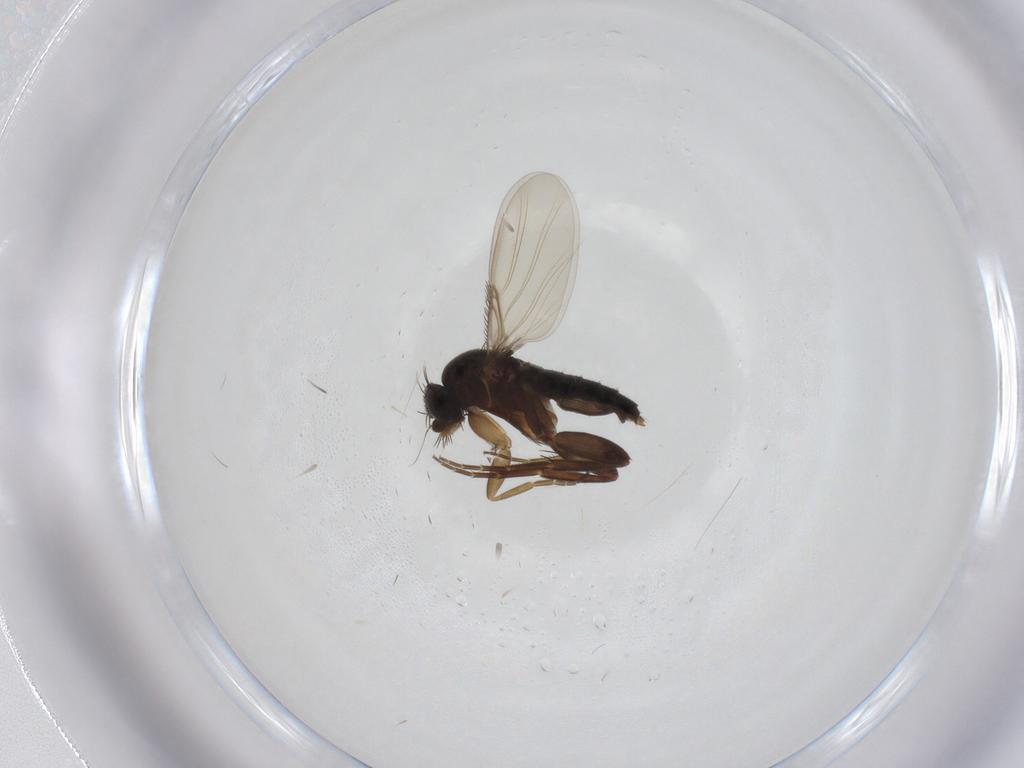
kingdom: Animalia
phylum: Arthropoda
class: Insecta
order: Diptera
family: Phoridae
